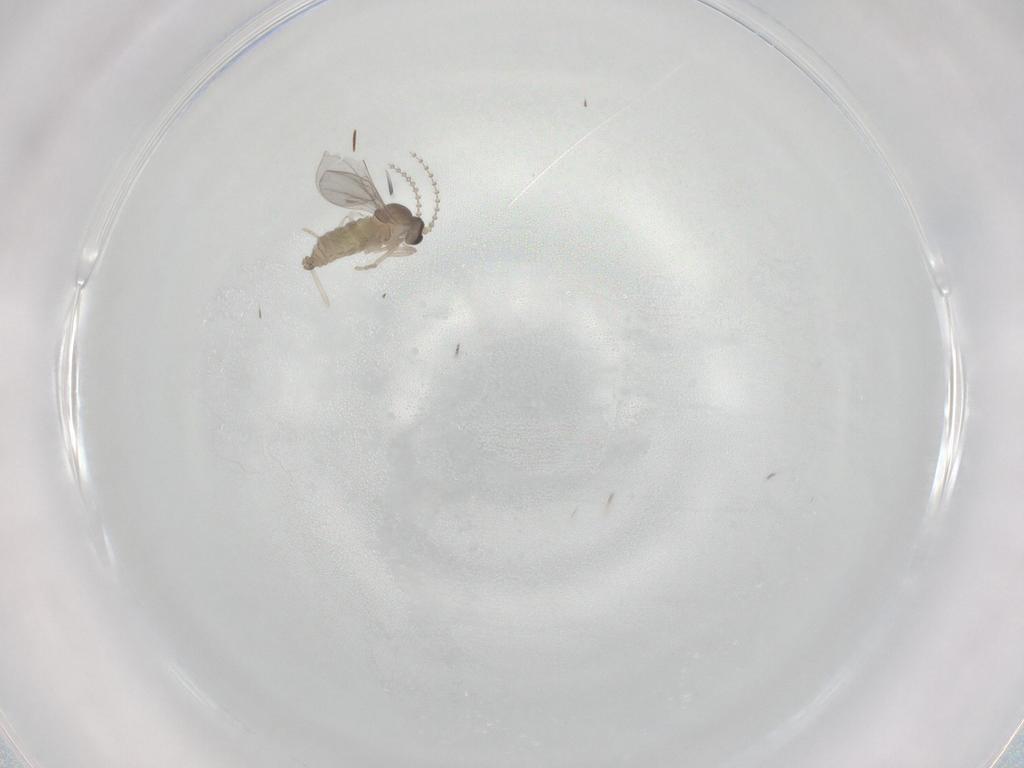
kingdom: Animalia
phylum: Arthropoda
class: Insecta
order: Diptera
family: Cecidomyiidae
